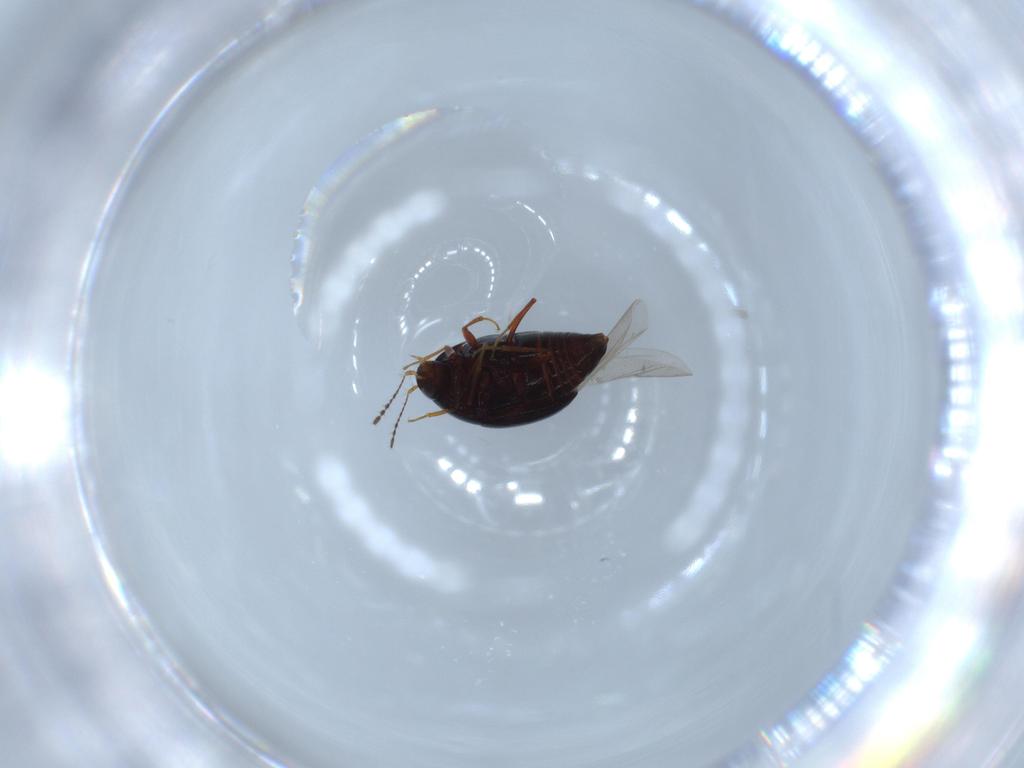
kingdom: Animalia
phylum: Arthropoda
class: Insecta
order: Coleoptera
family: Staphylinidae
